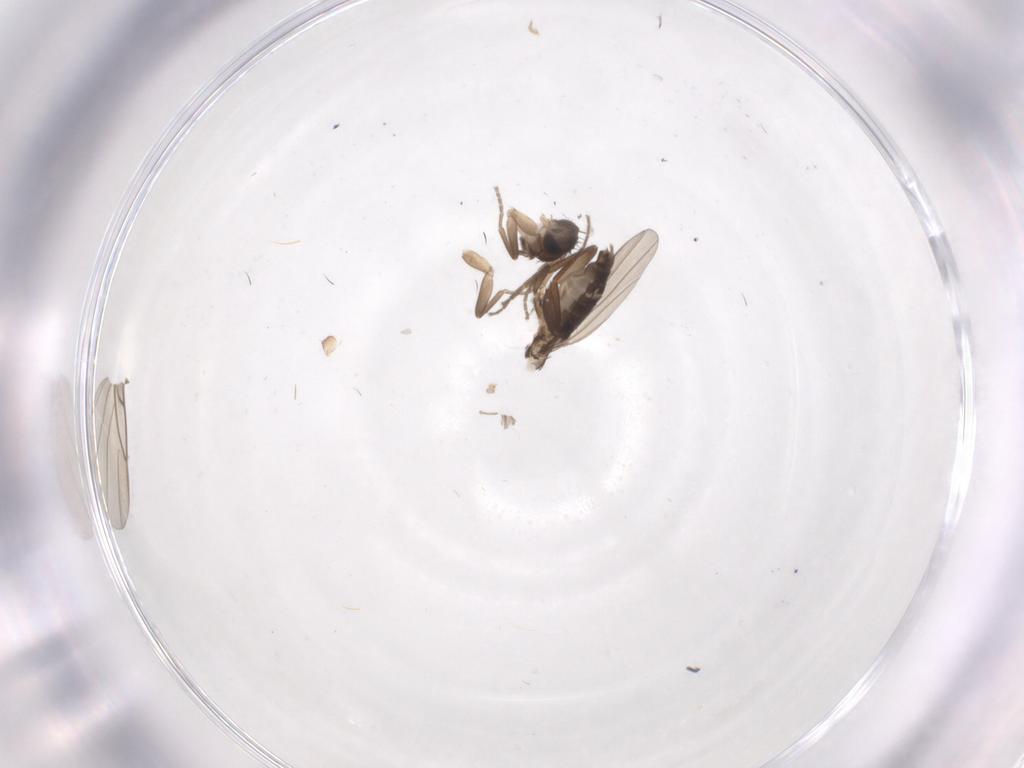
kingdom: Animalia
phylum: Arthropoda
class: Insecta
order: Diptera
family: Phoridae
